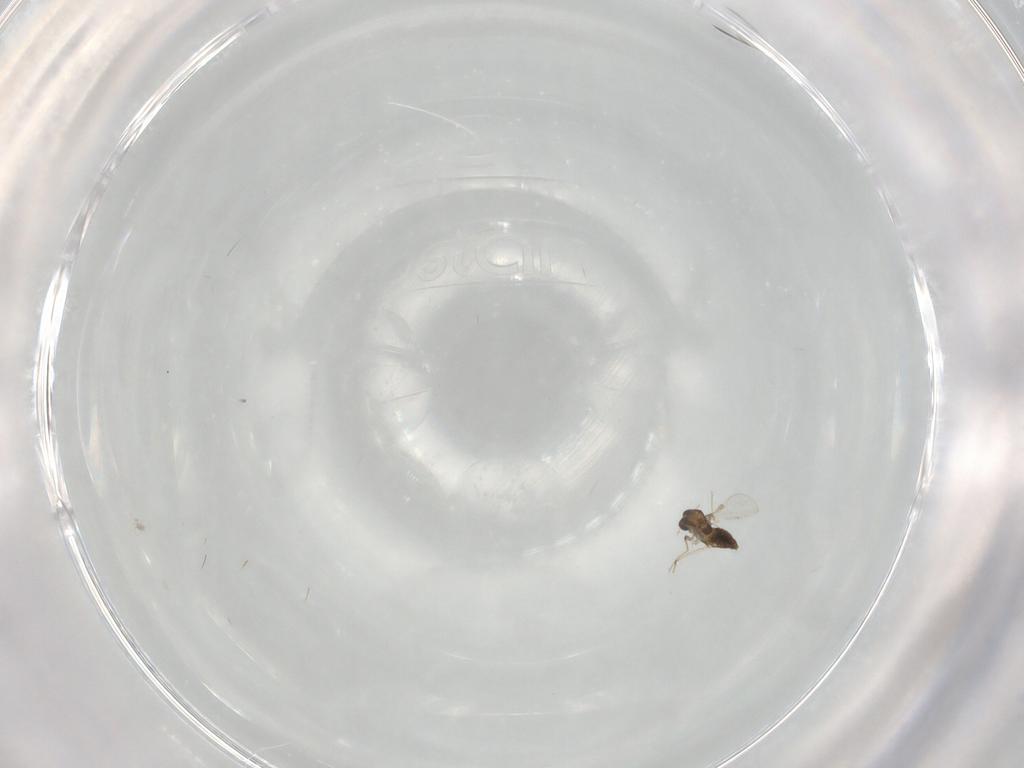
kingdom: Animalia
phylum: Arthropoda
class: Insecta
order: Diptera
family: Chironomidae
